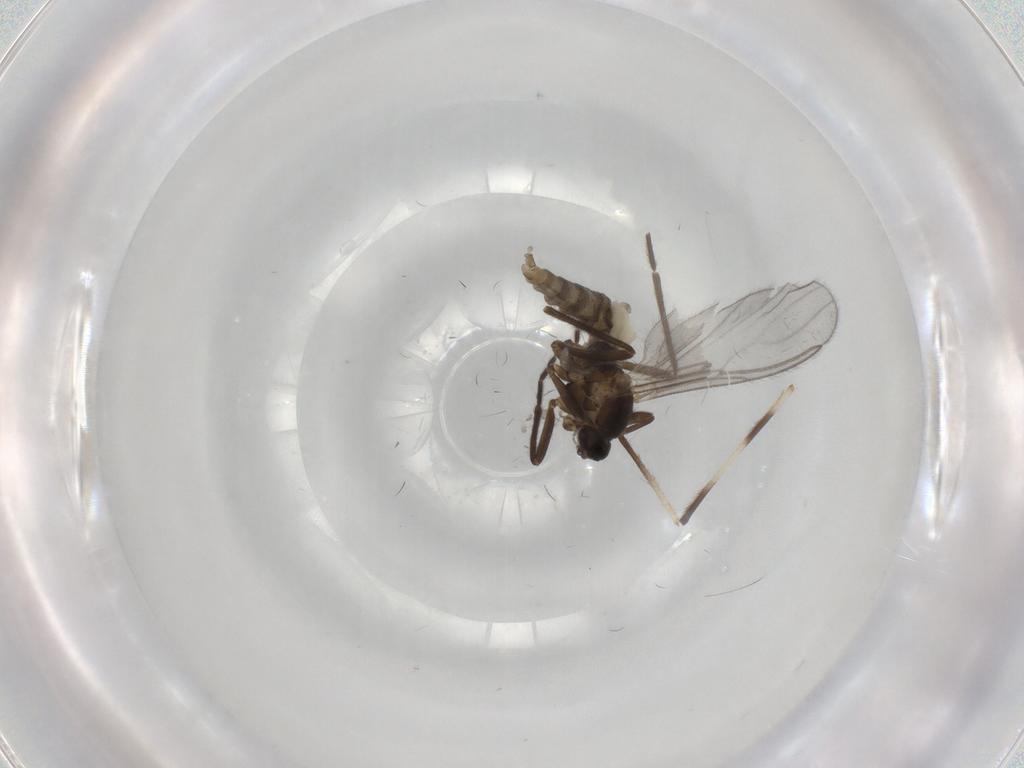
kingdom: Animalia
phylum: Arthropoda
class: Insecta
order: Diptera
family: Cecidomyiidae
